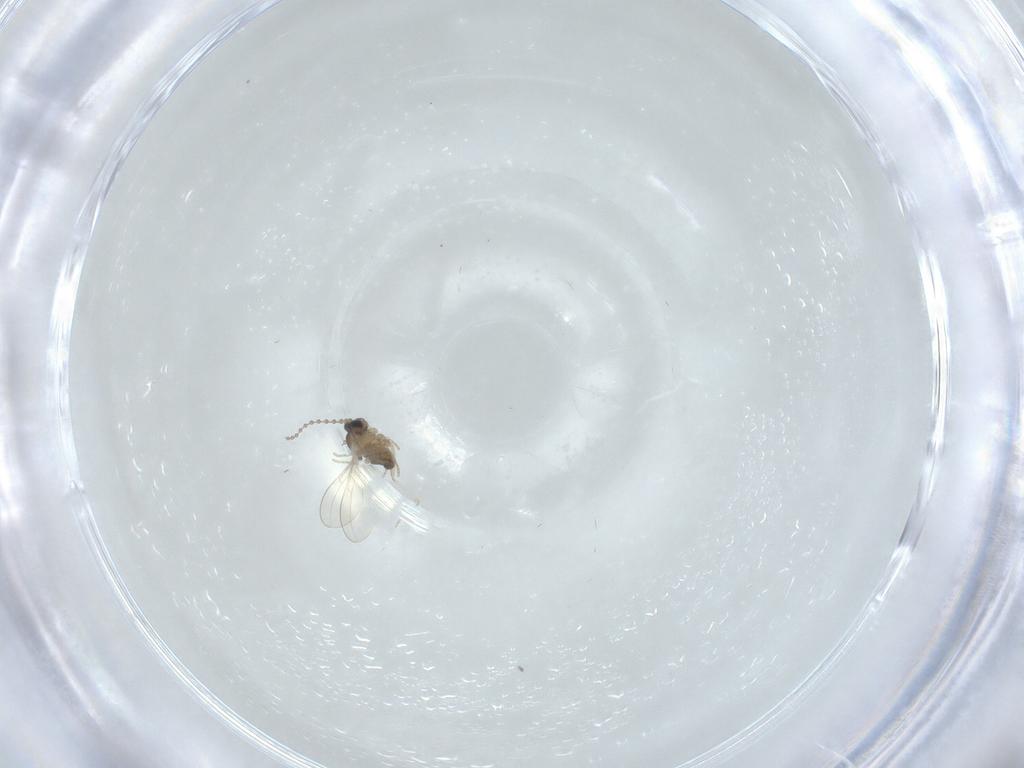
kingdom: Animalia
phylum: Arthropoda
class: Insecta
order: Diptera
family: Cecidomyiidae
